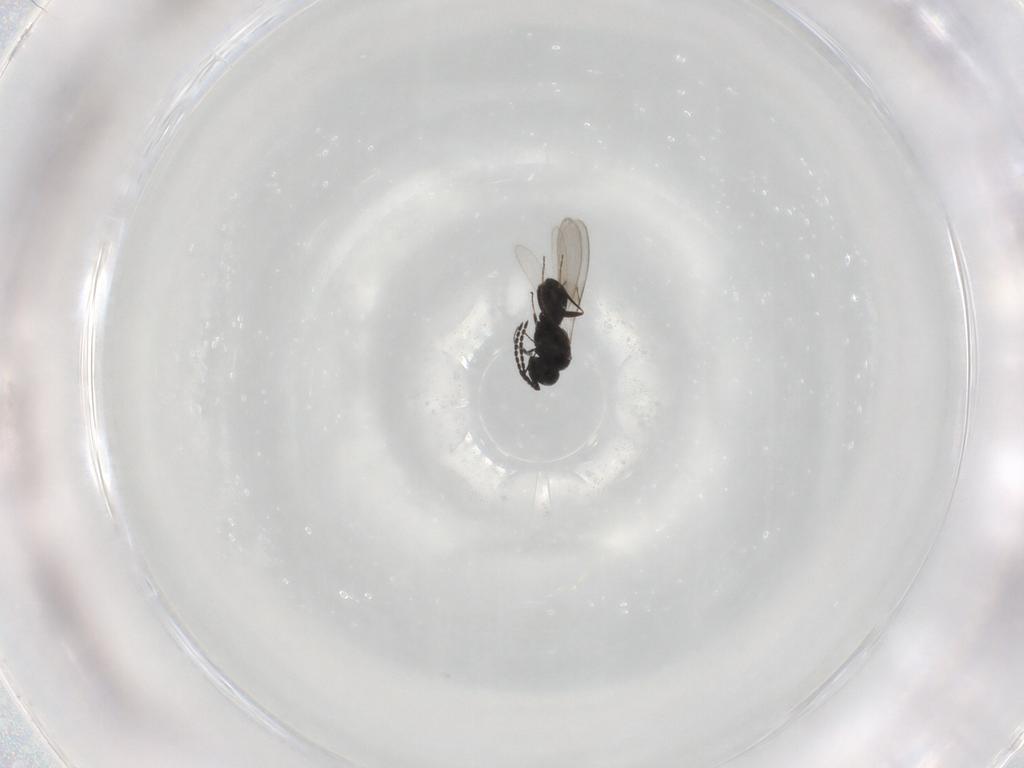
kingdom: Animalia
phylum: Arthropoda
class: Insecta
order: Hymenoptera
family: Scelionidae
